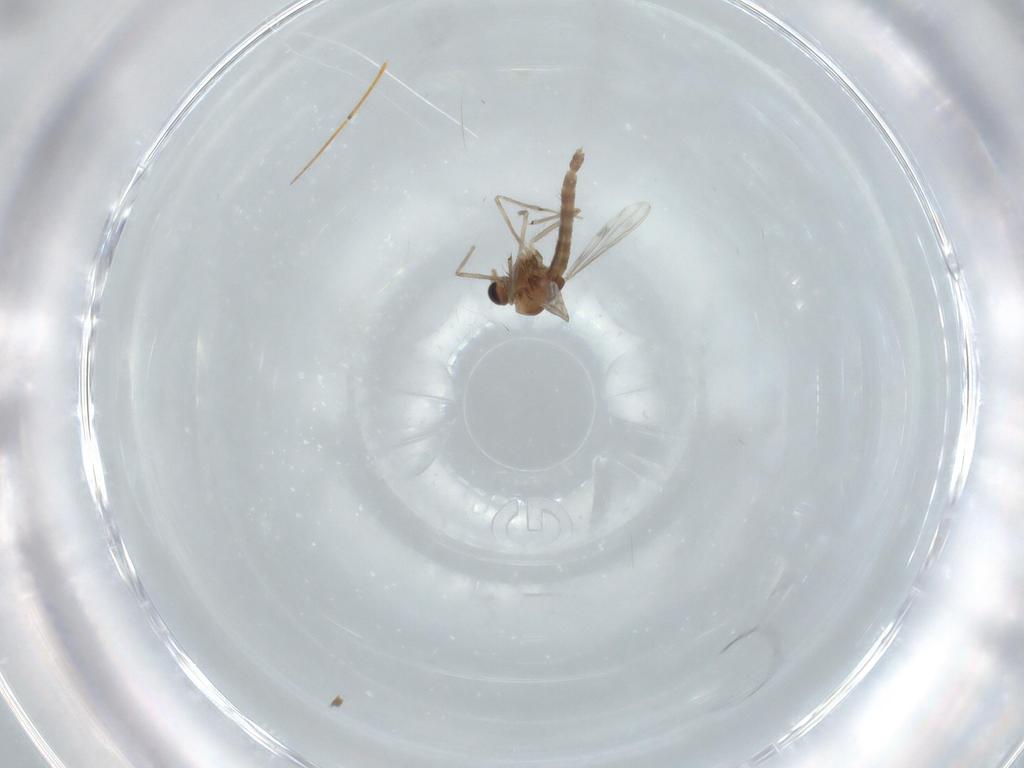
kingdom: Animalia
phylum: Arthropoda
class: Insecta
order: Diptera
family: Chironomidae
